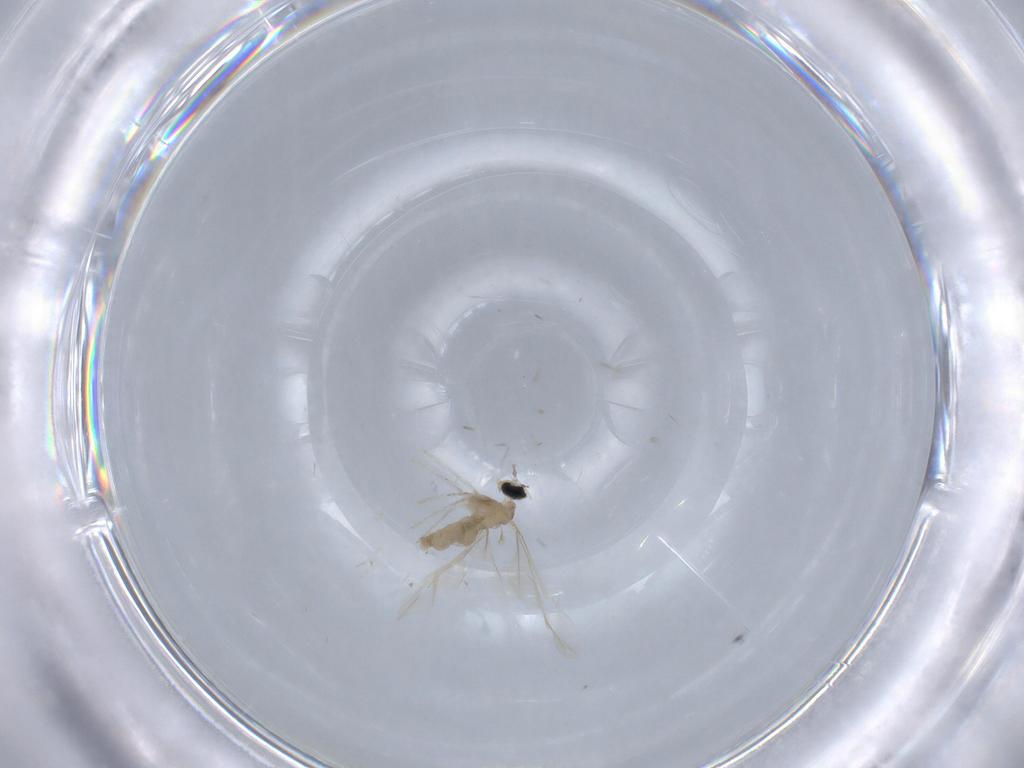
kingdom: Animalia
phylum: Arthropoda
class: Insecta
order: Diptera
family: Cecidomyiidae
